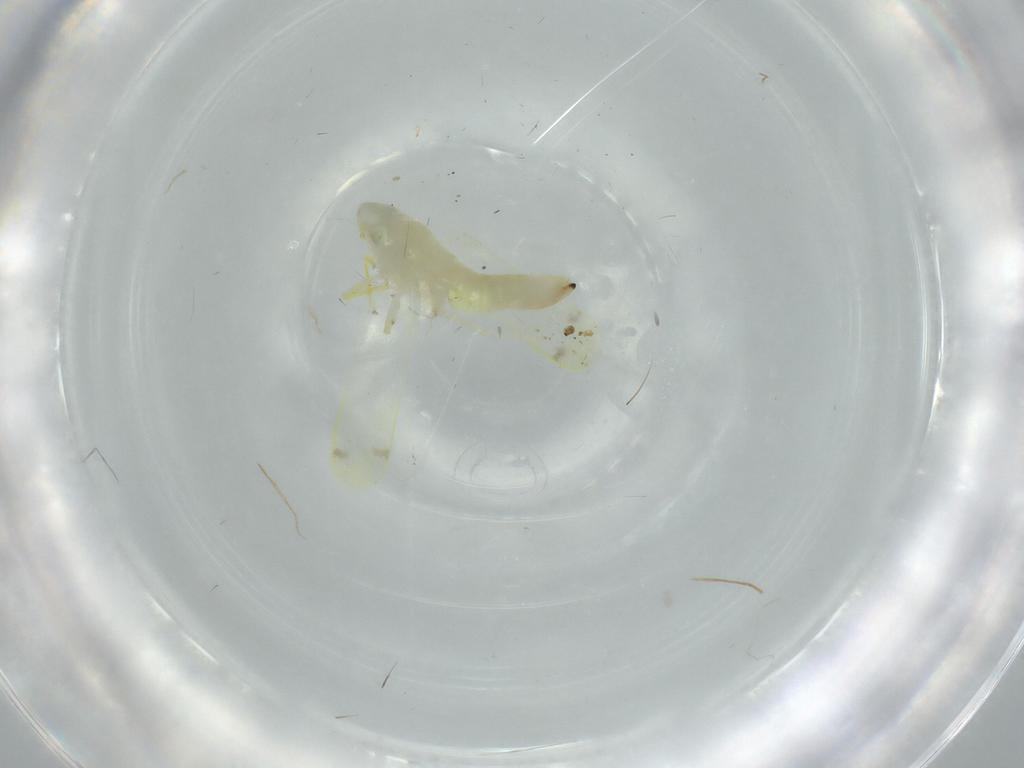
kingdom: Animalia
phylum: Arthropoda
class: Insecta
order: Hemiptera
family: Cicadellidae
